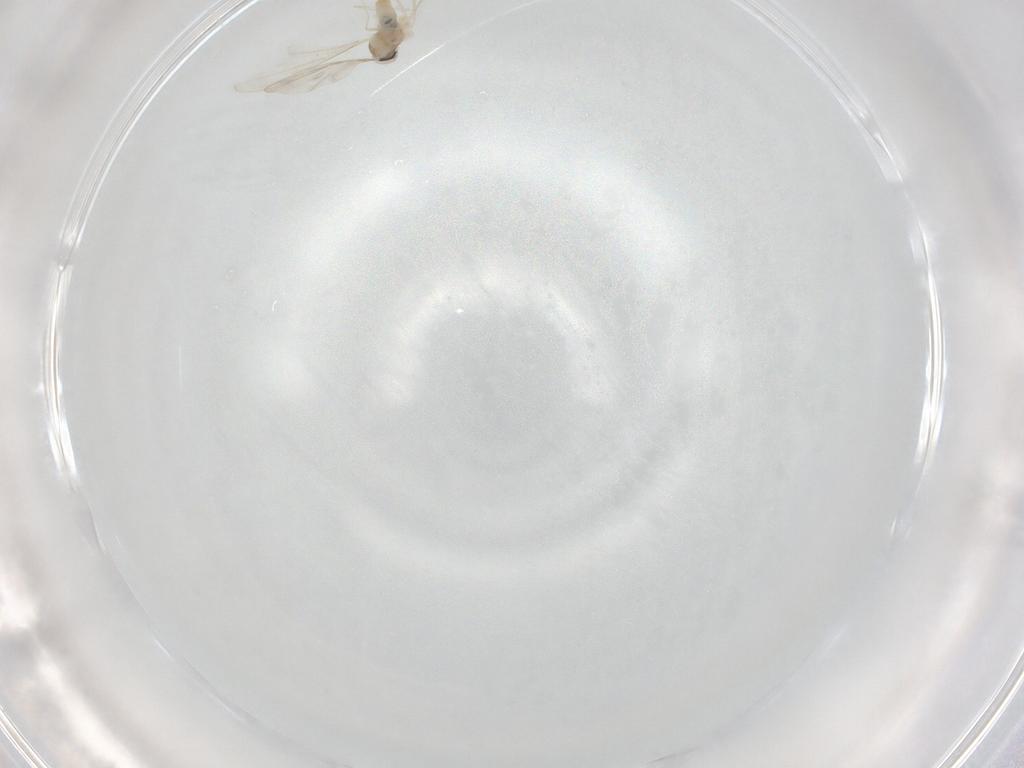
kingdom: Animalia
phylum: Arthropoda
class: Insecta
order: Diptera
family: Cecidomyiidae
